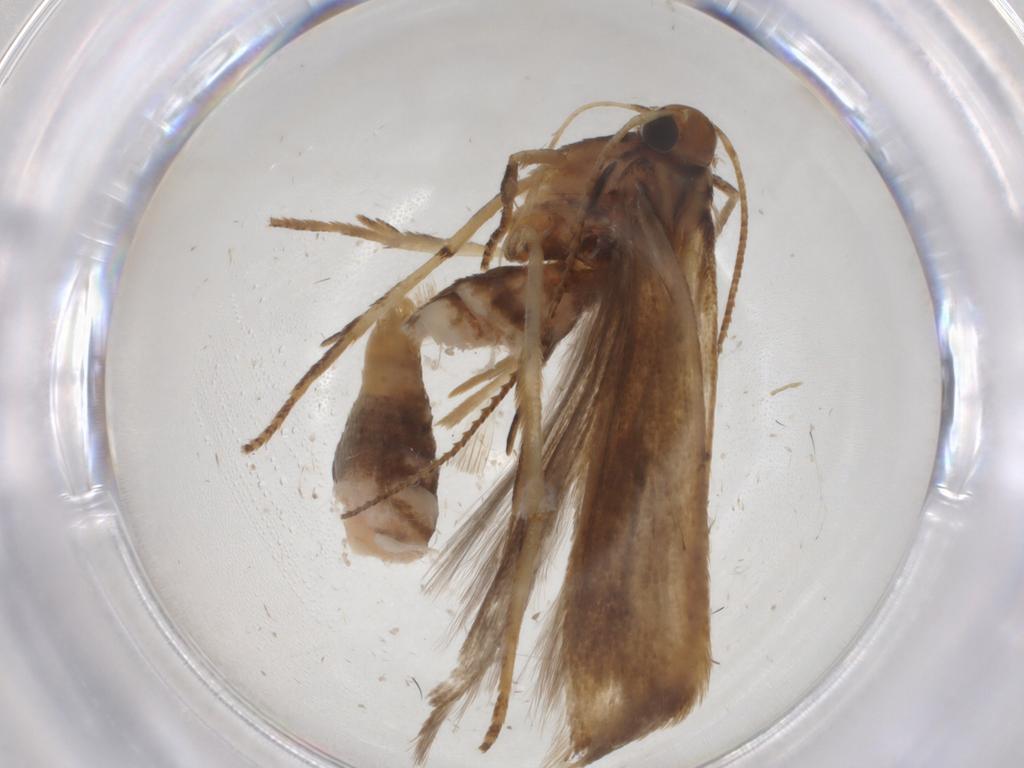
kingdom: Animalia
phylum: Arthropoda
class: Insecta
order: Lepidoptera
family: Gelechiidae
